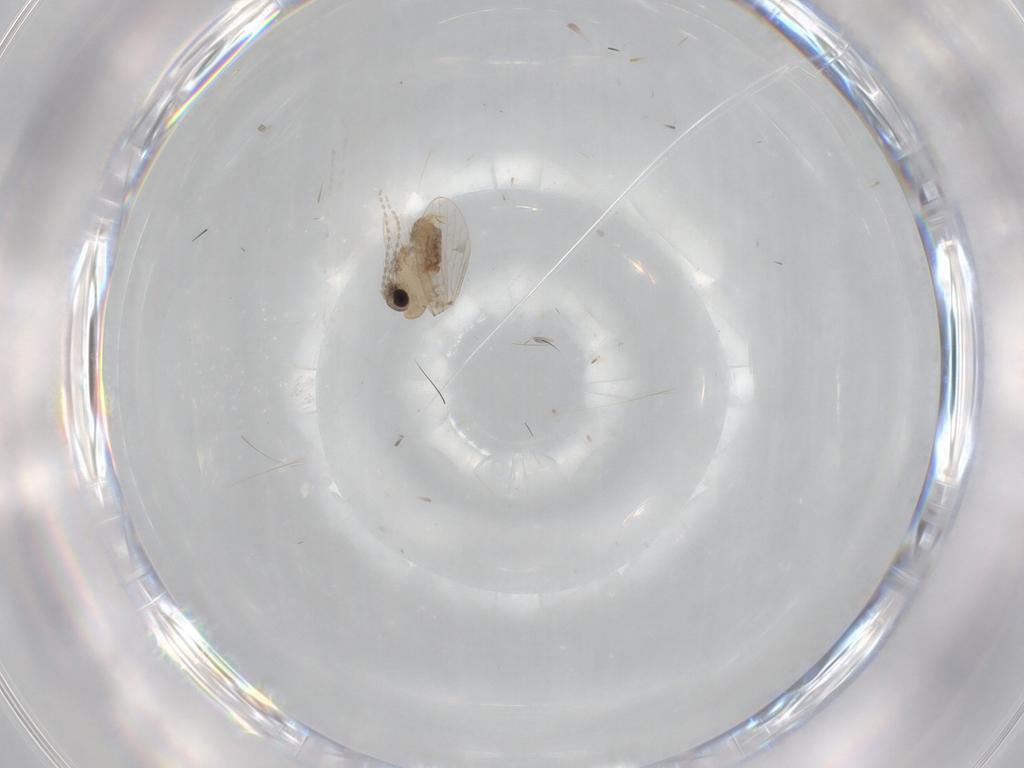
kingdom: Animalia
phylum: Arthropoda
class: Insecta
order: Diptera
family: Psychodidae
